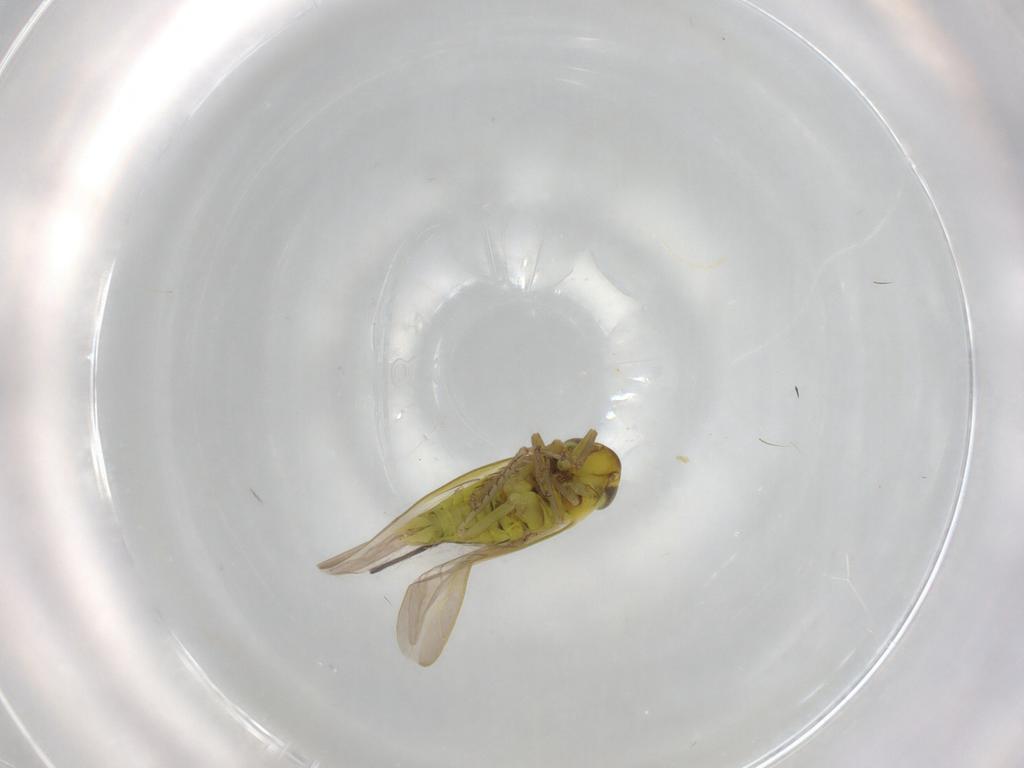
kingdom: Animalia
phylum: Arthropoda
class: Insecta
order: Hemiptera
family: Cicadellidae
